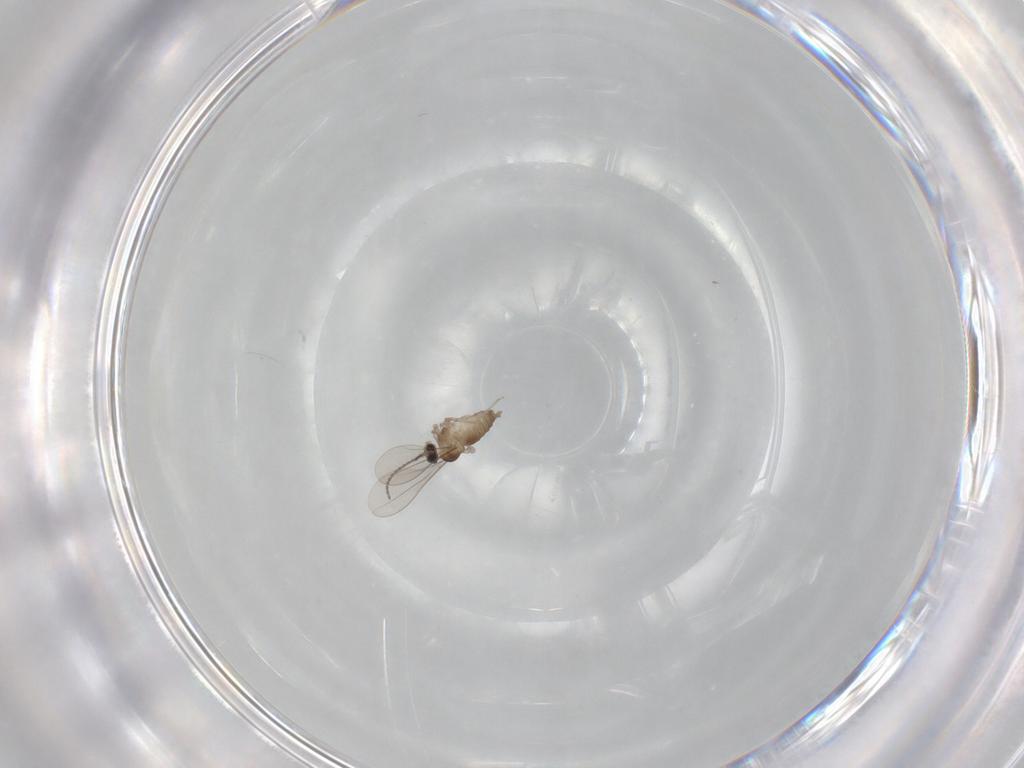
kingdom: Animalia
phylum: Arthropoda
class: Insecta
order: Diptera
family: Cecidomyiidae
